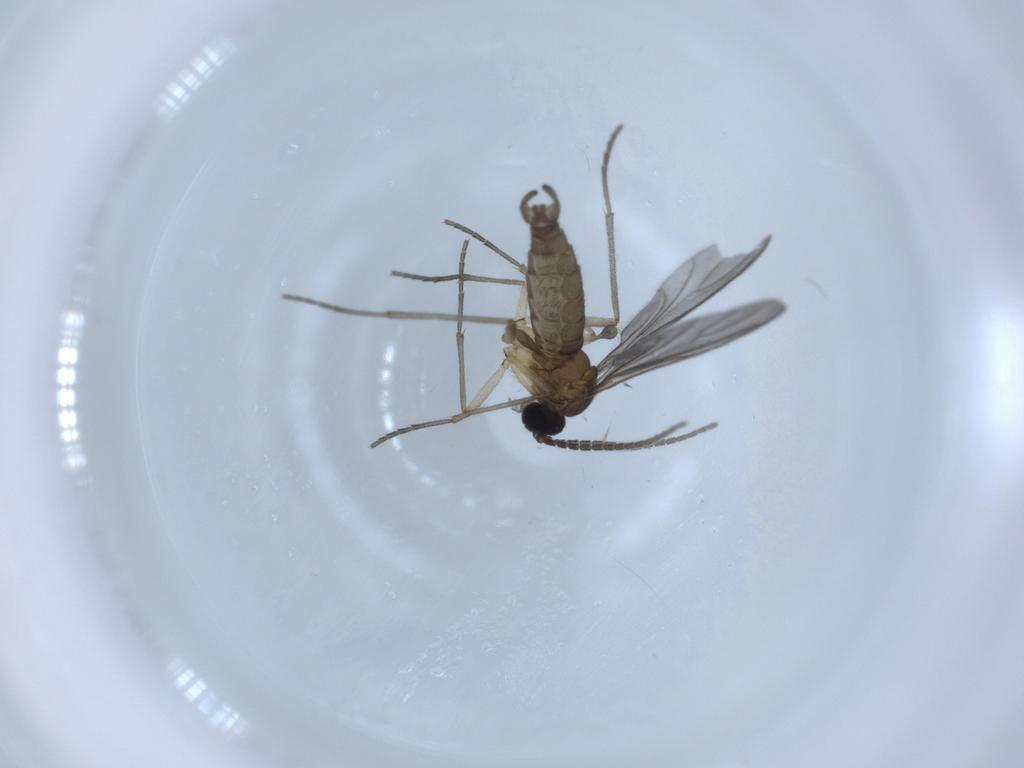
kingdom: Animalia
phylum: Arthropoda
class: Insecta
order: Diptera
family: Sciaridae
